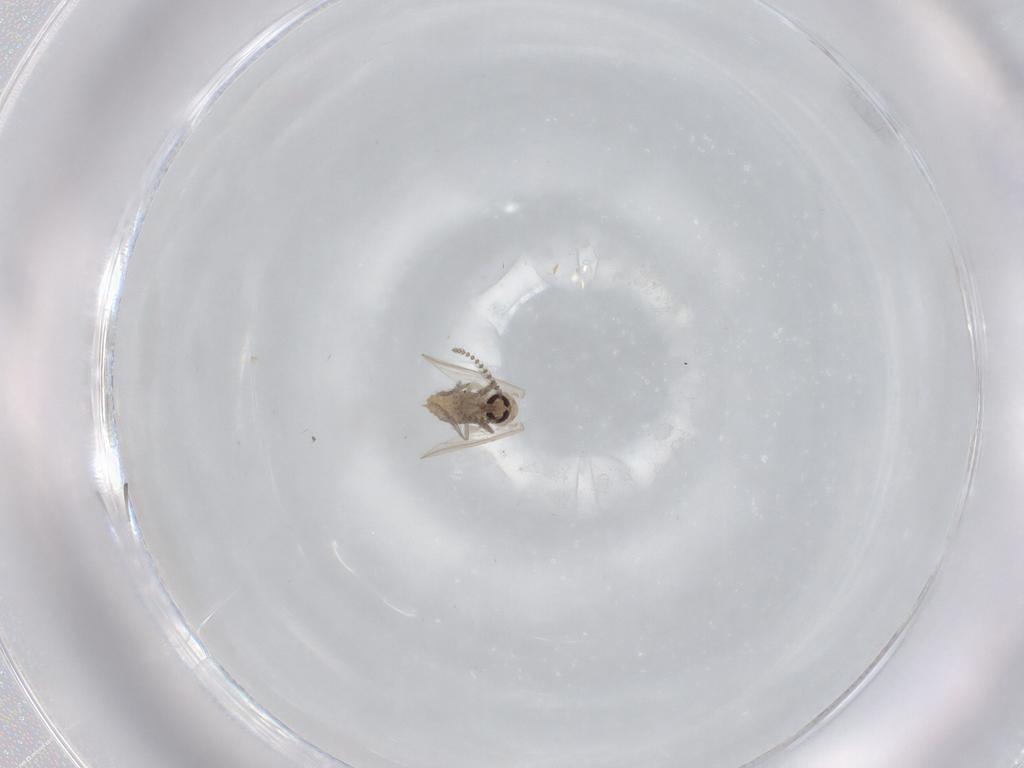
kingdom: Animalia
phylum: Arthropoda
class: Insecta
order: Diptera
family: Psychodidae
